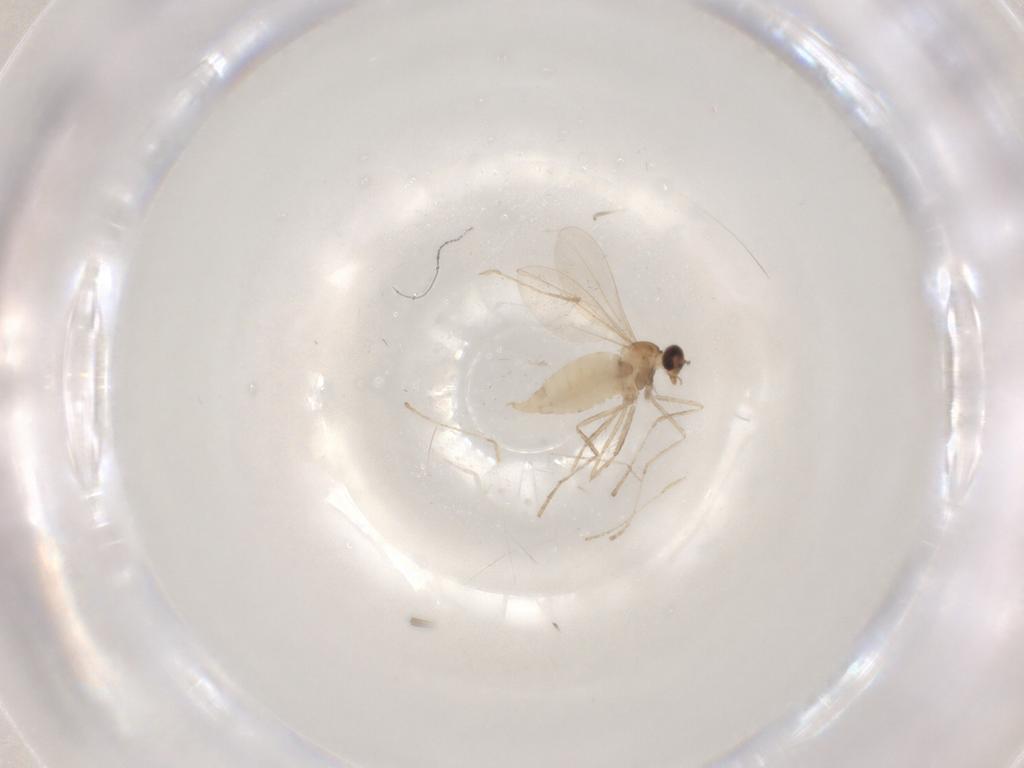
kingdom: Animalia
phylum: Arthropoda
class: Insecta
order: Diptera
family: Cecidomyiidae
